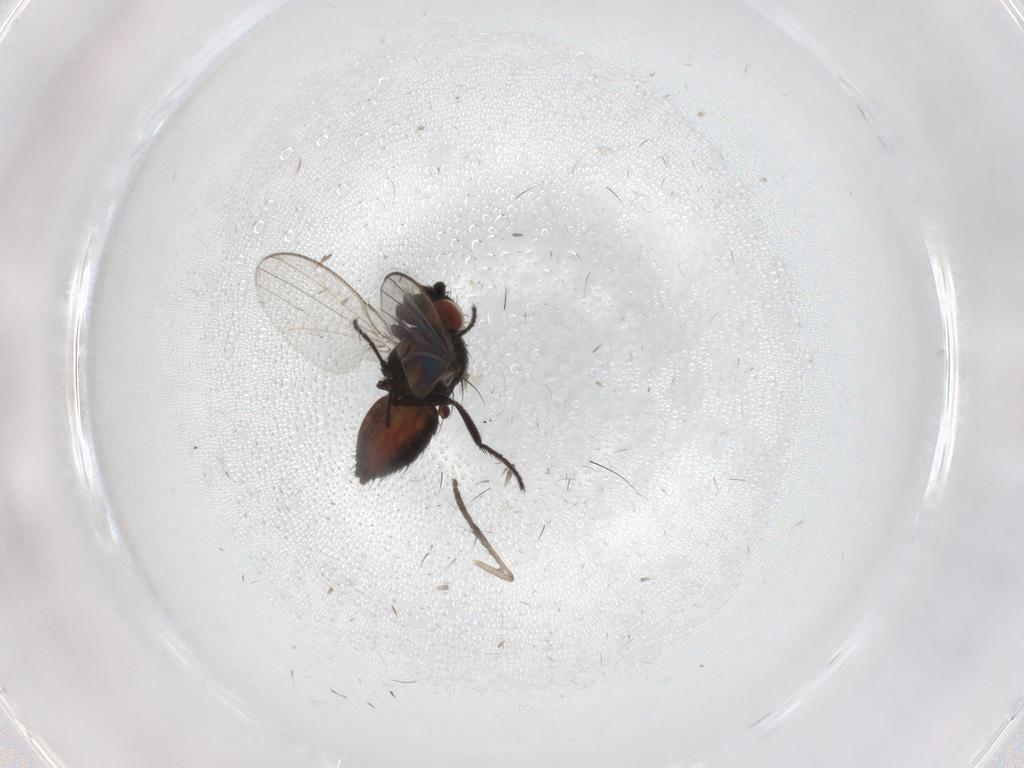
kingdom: Animalia
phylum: Arthropoda
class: Insecta
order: Diptera
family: Milichiidae
